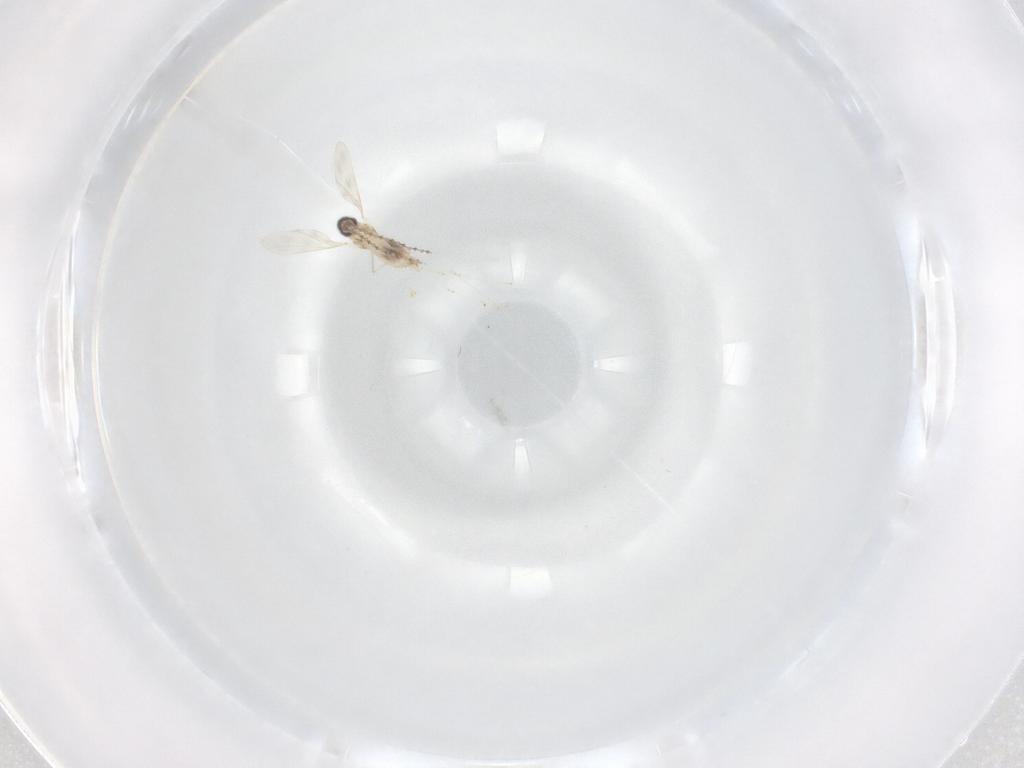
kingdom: Animalia
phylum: Arthropoda
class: Insecta
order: Diptera
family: Cecidomyiidae
